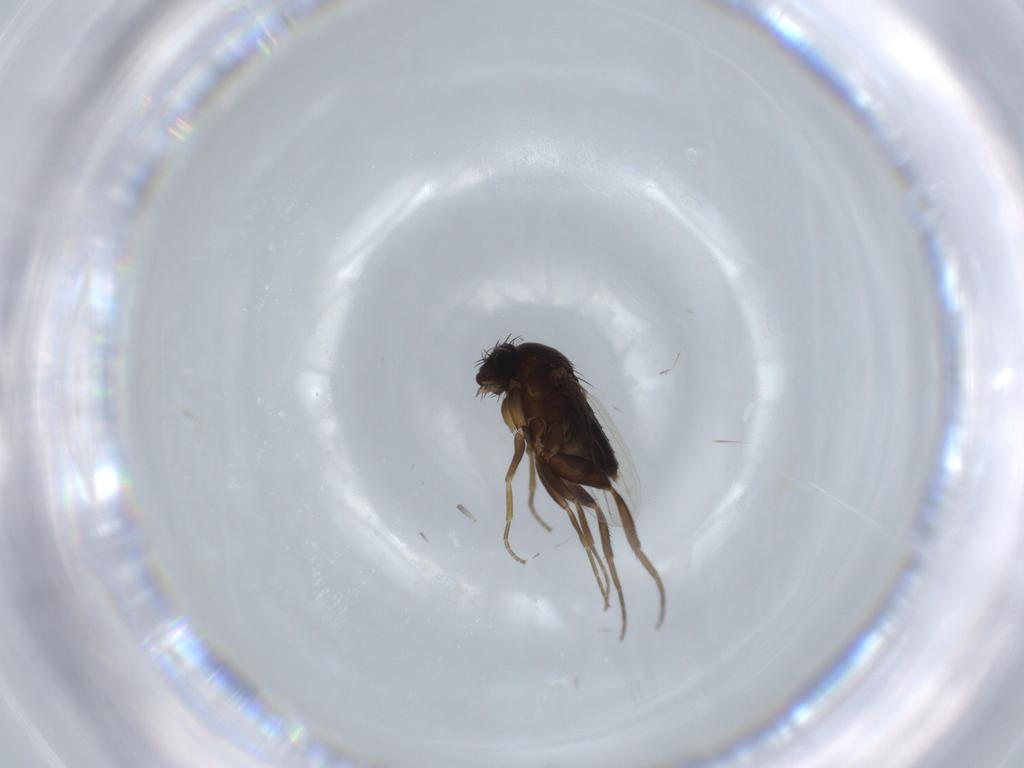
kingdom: Animalia
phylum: Arthropoda
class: Insecta
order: Diptera
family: Phoridae
